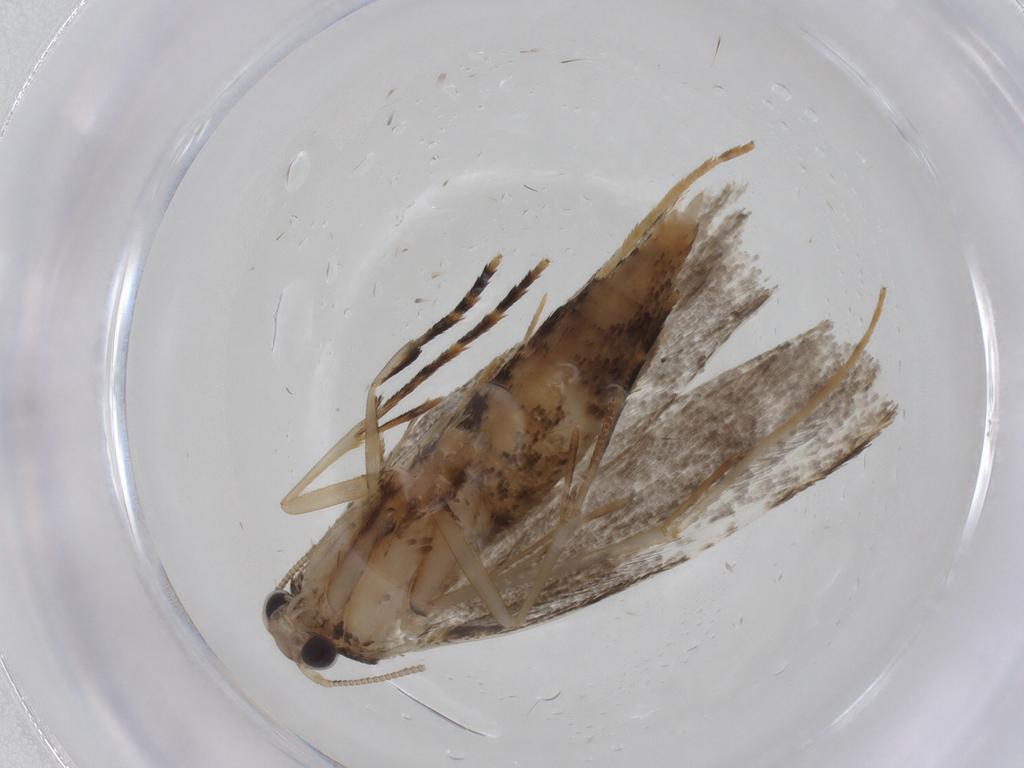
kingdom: Animalia
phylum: Arthropoda
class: Insecta
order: Lepidoptera
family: Tineidae
